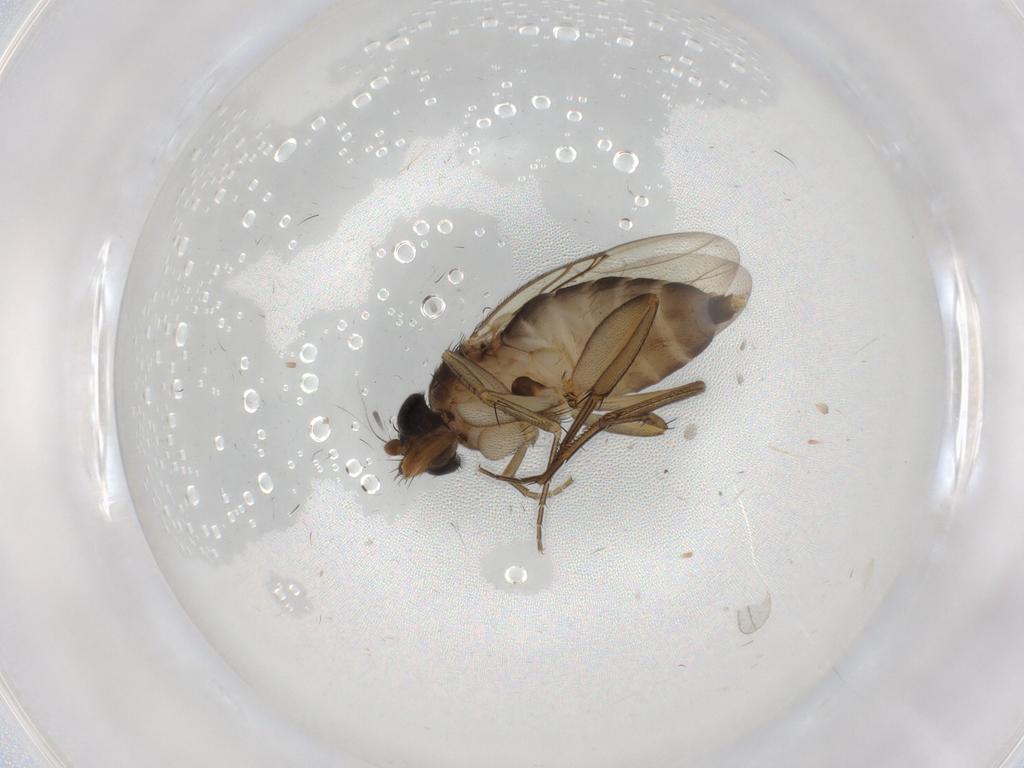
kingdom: Animalia
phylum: Arthropoda
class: Insecta
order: Diptera
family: Phoridae
